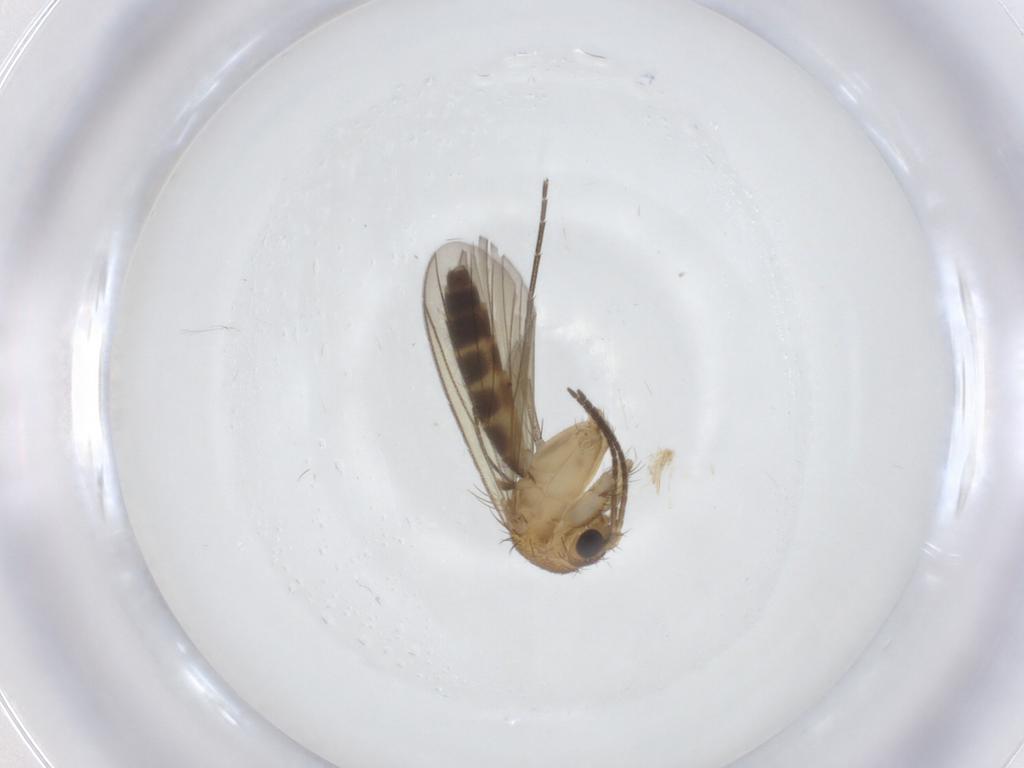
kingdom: Animalia
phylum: Arthropoda
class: Insecta
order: Diptera
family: Sciaridae
